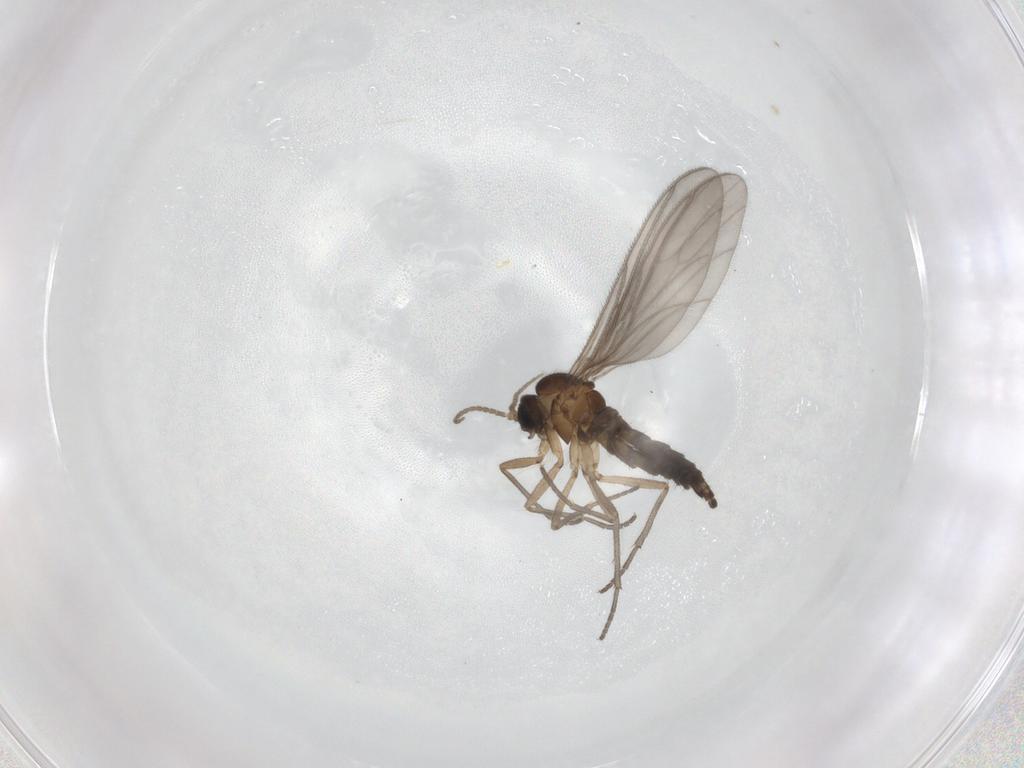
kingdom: Animalia
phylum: Arthropoda
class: Insecta
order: Diptera
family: Sciaridae
